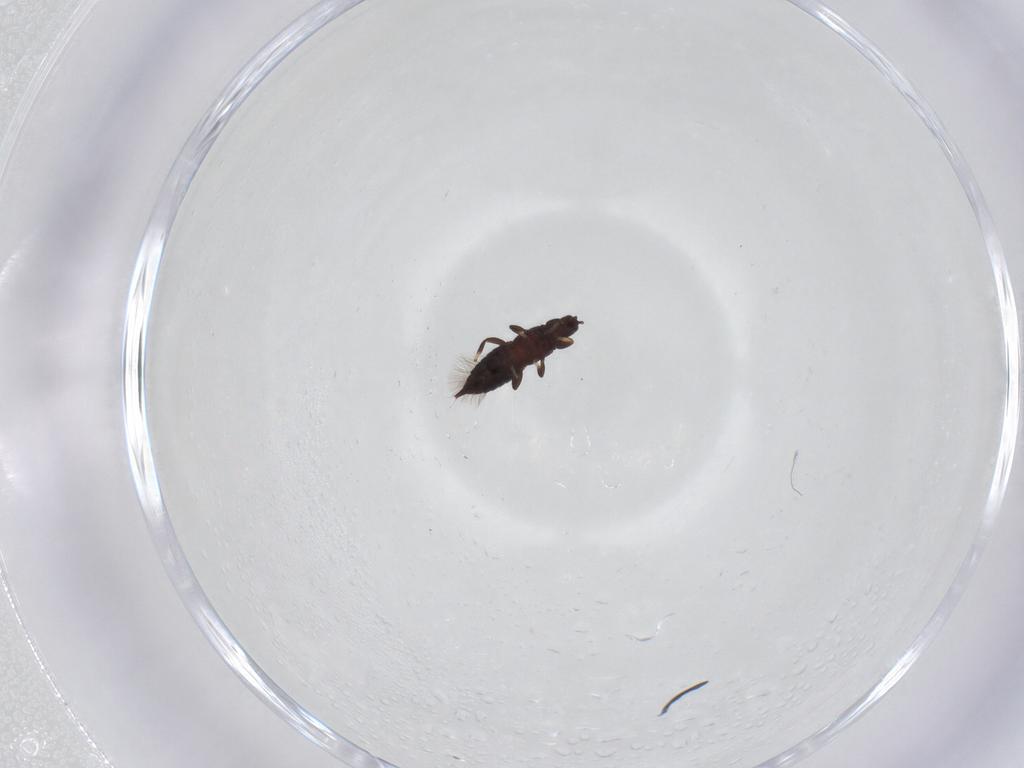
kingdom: Animalia
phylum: Arthropoda
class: Insecta
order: Thysanoptera
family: Phlaeothripidae
